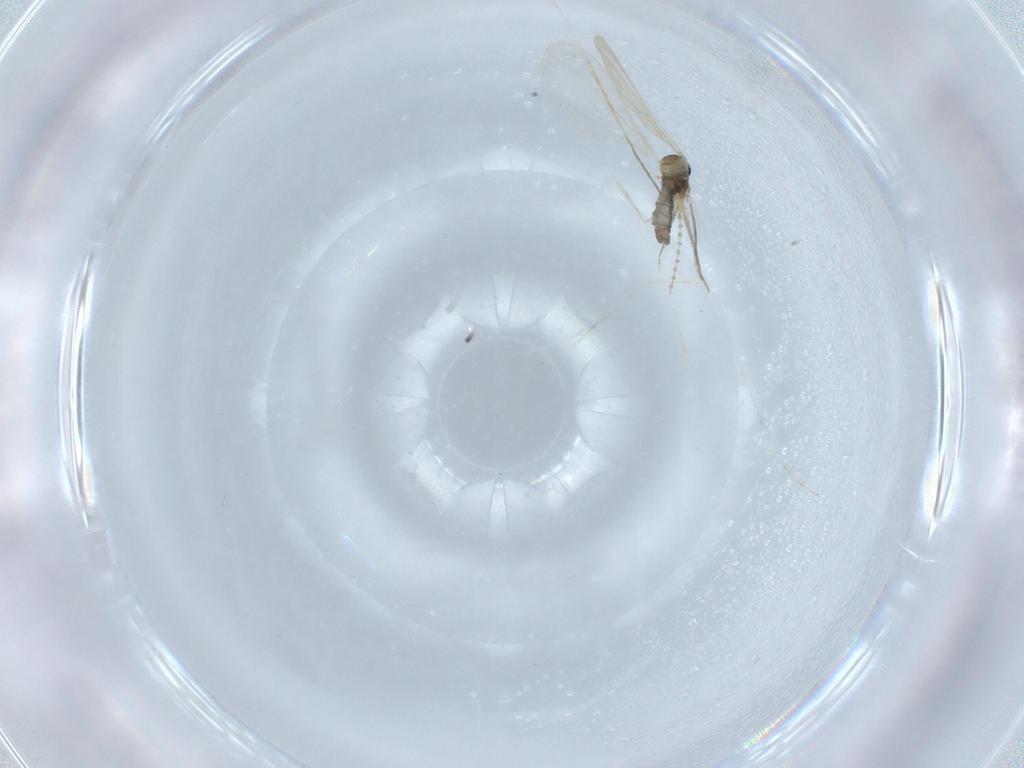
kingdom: Animalia
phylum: Arthropoda
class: Insecta
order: Diptera
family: Cecidomyiidae
